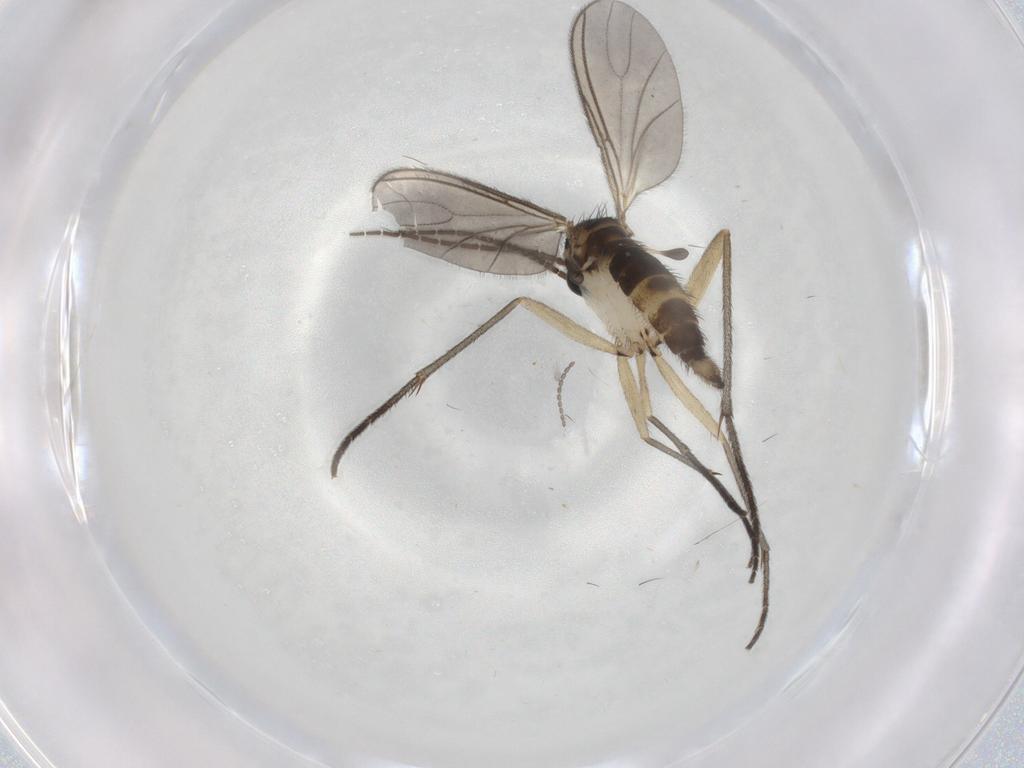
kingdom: Animalia
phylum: Arthropoda
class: Insecta
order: Diptera
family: Sciaridae
